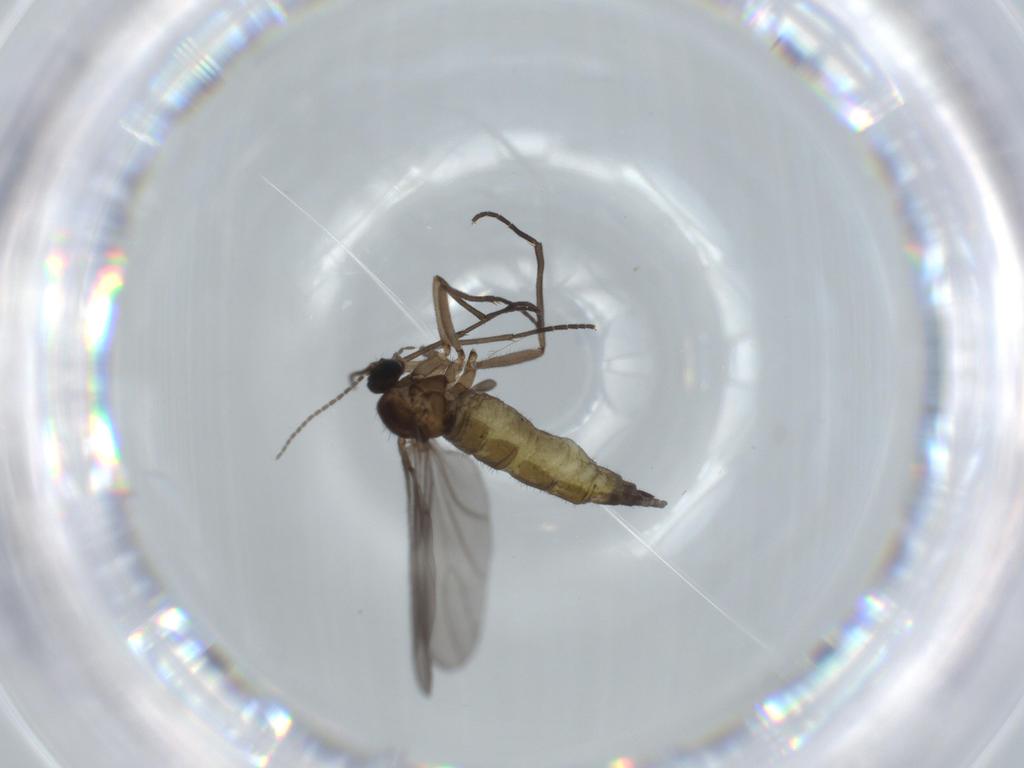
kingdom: Animalia
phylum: Arthropoda
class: Insecta
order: Diptera
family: Sciaridae
